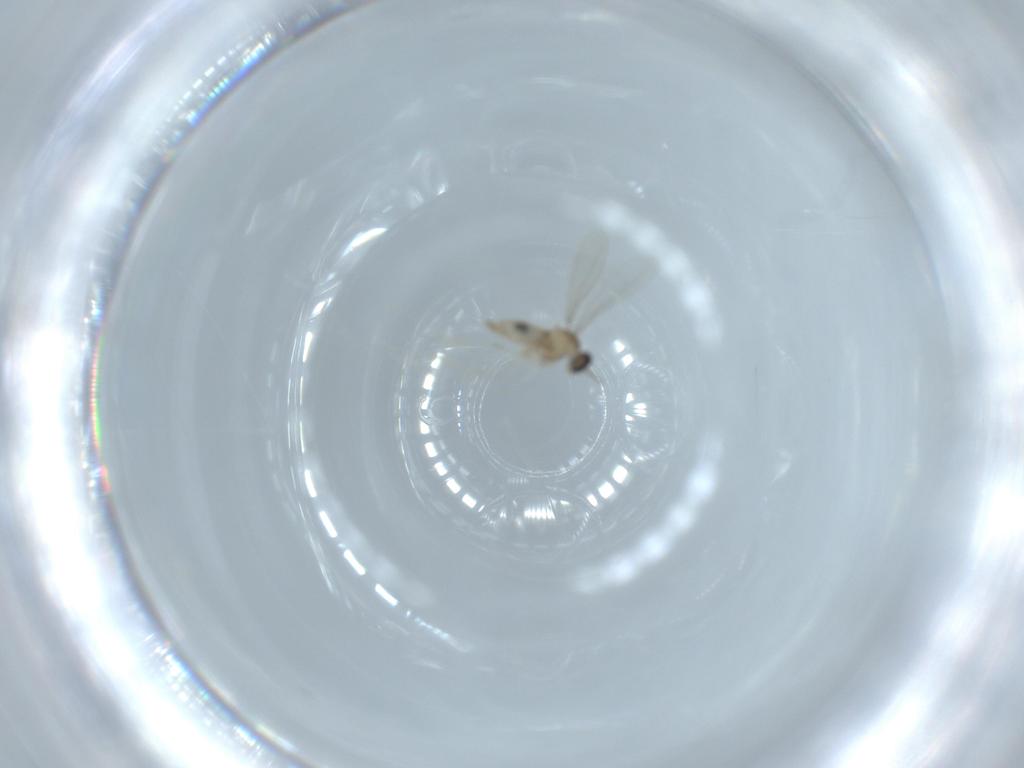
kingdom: Animalia
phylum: Arthropoda
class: Insecta
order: Diptera
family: Cecidomyiidae
